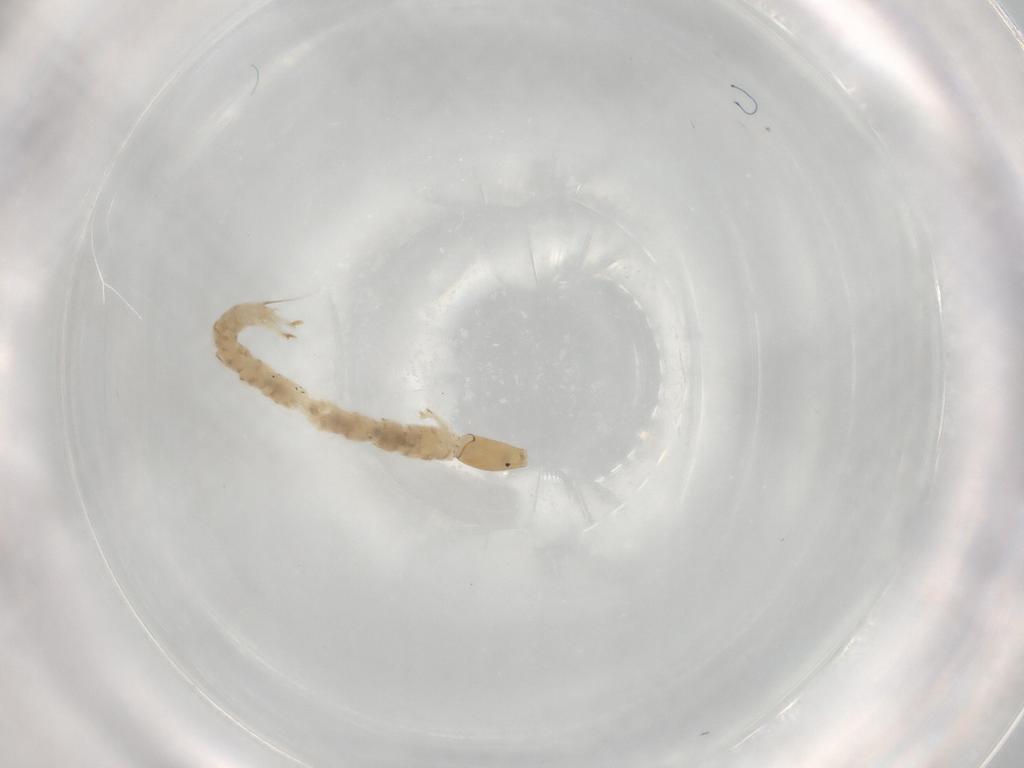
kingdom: Animalia
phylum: Arthropoda
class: Insecta
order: Diptera
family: Chironomidae
